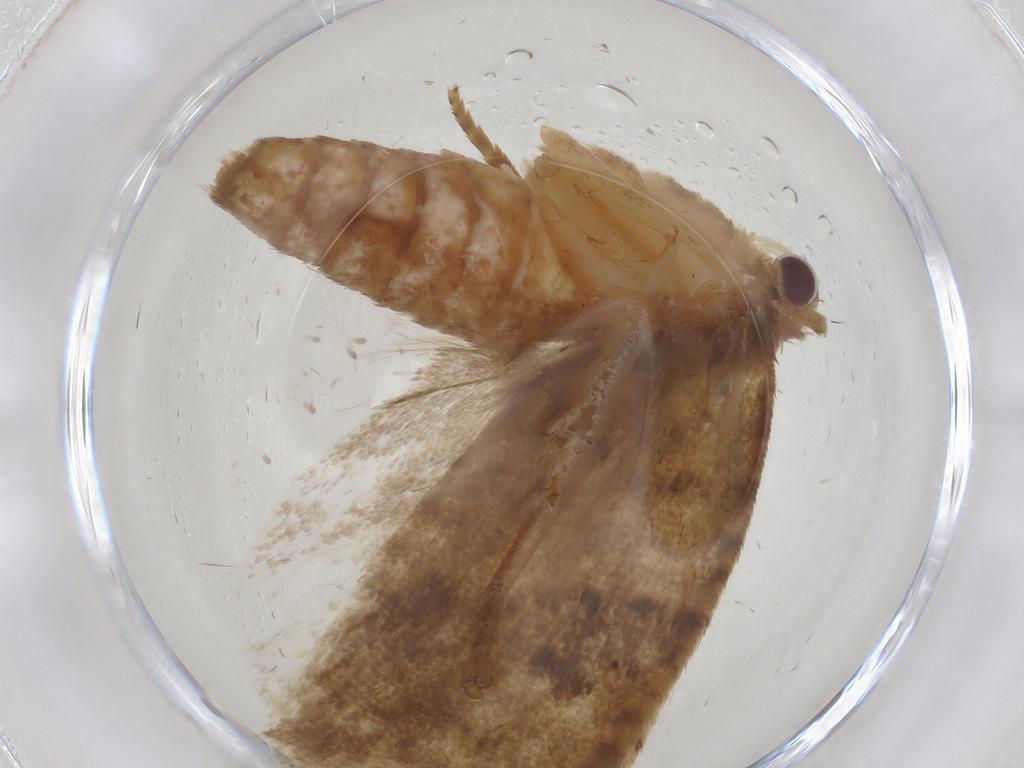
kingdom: Animalia
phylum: Arthropoda
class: Insecta
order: Lepidoptera
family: Tortricidae
